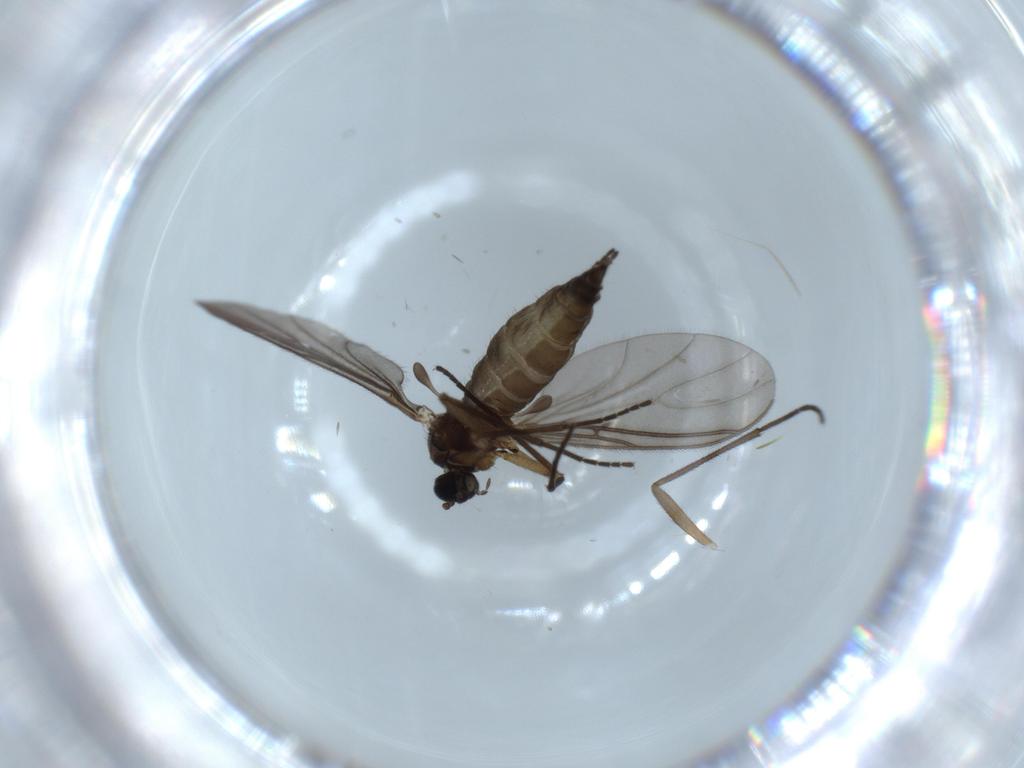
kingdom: Animalia
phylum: Arthropoda
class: Insecta
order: Diptera
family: Sciaridae
